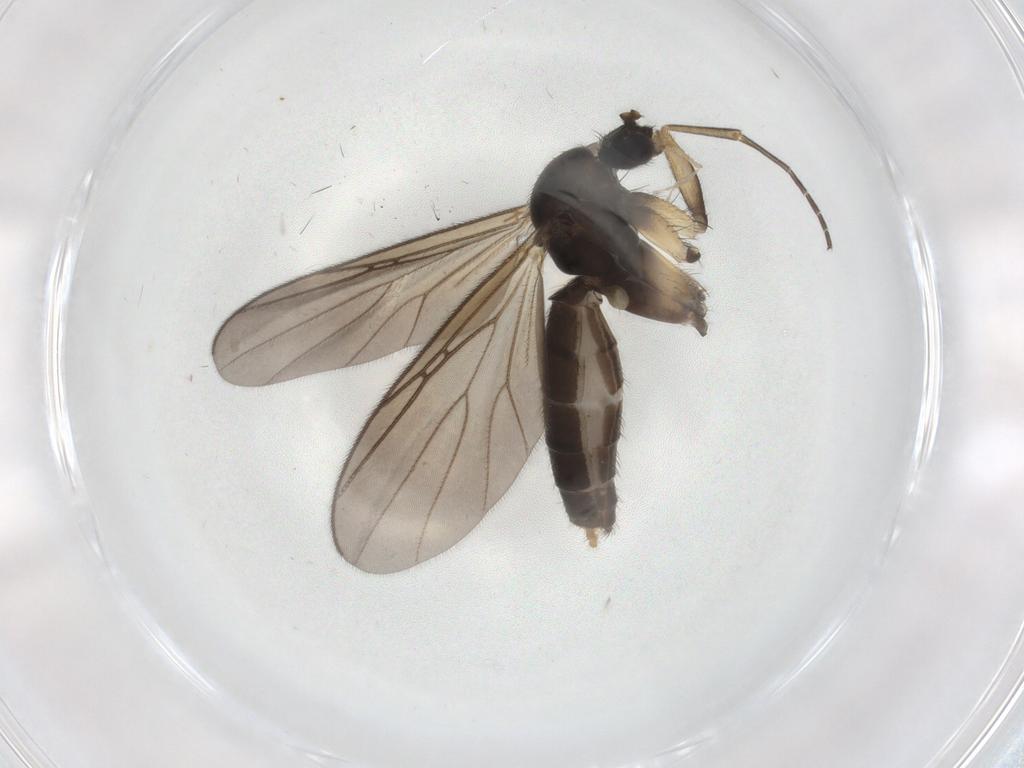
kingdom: Animalia
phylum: Arthropoda
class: Insecta
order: Diptera
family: Mycetophilidae
